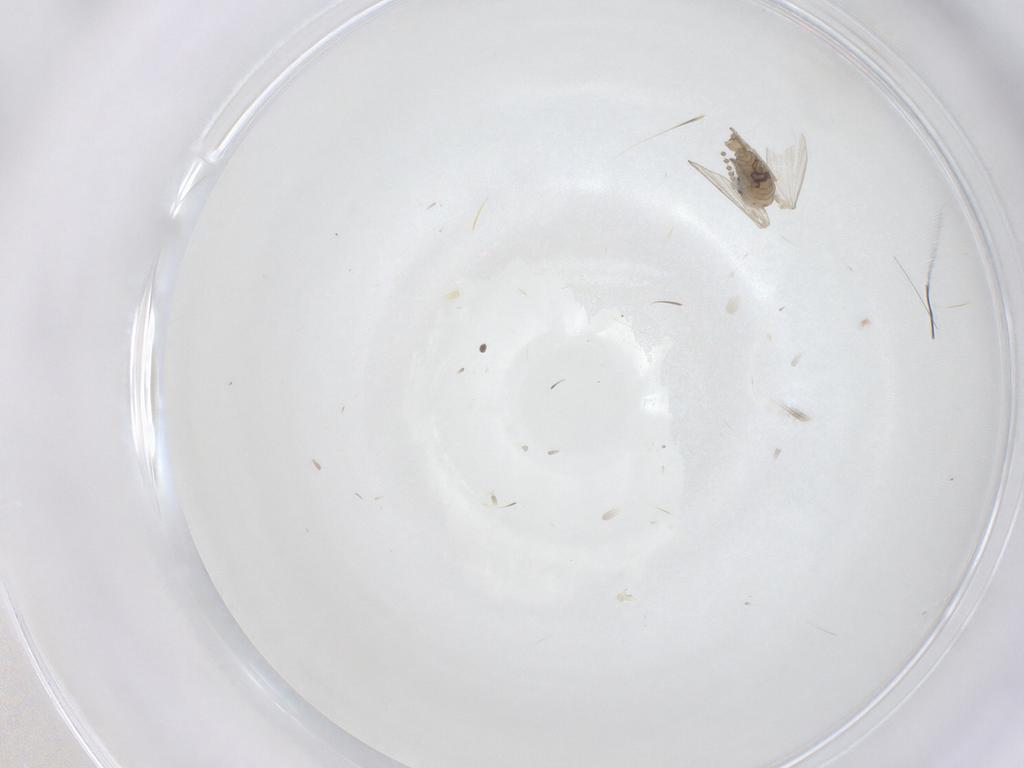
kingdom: Animalia
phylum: Arthropoda
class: Insecta
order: Diptera
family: Psychodidae
